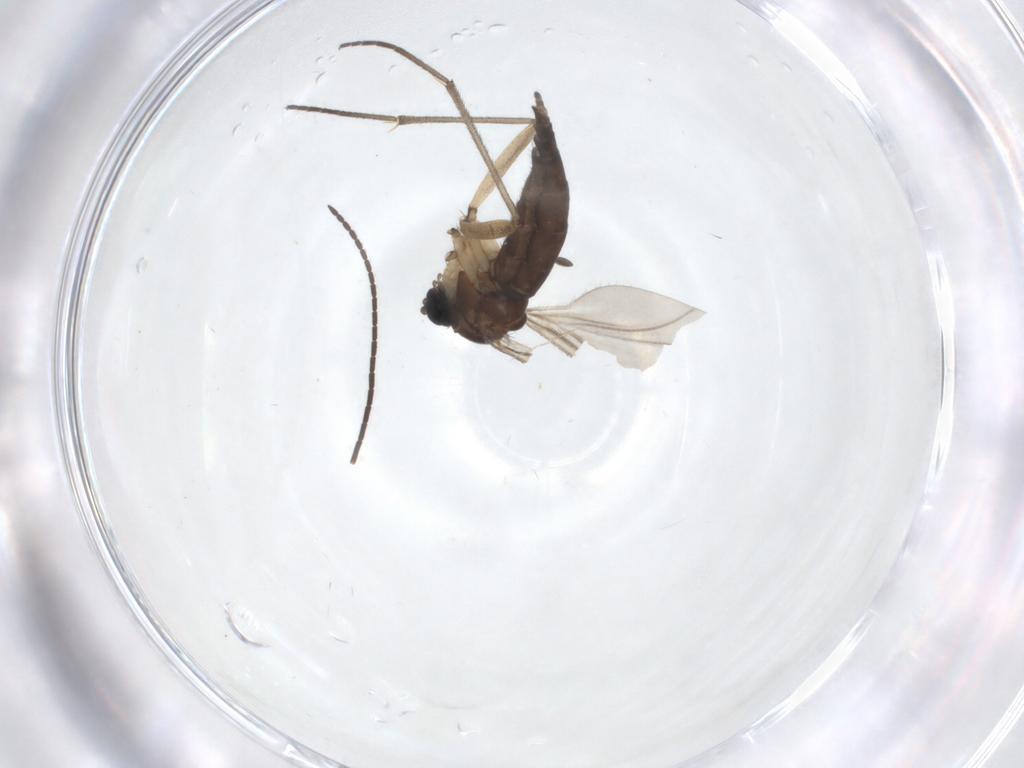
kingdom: Animalia
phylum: Arthropoda
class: Insecta
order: Diptera
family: Sciaridae
